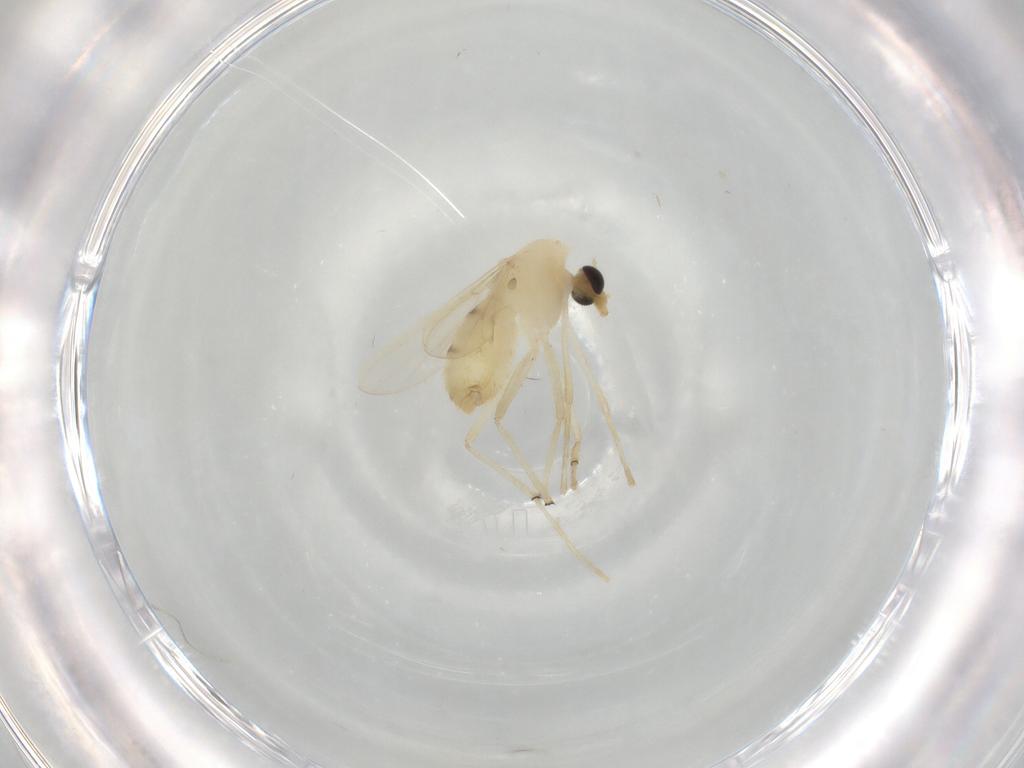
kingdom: Animalia
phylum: Arthropoda
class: Insecta
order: Diptera
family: Chironomidae
